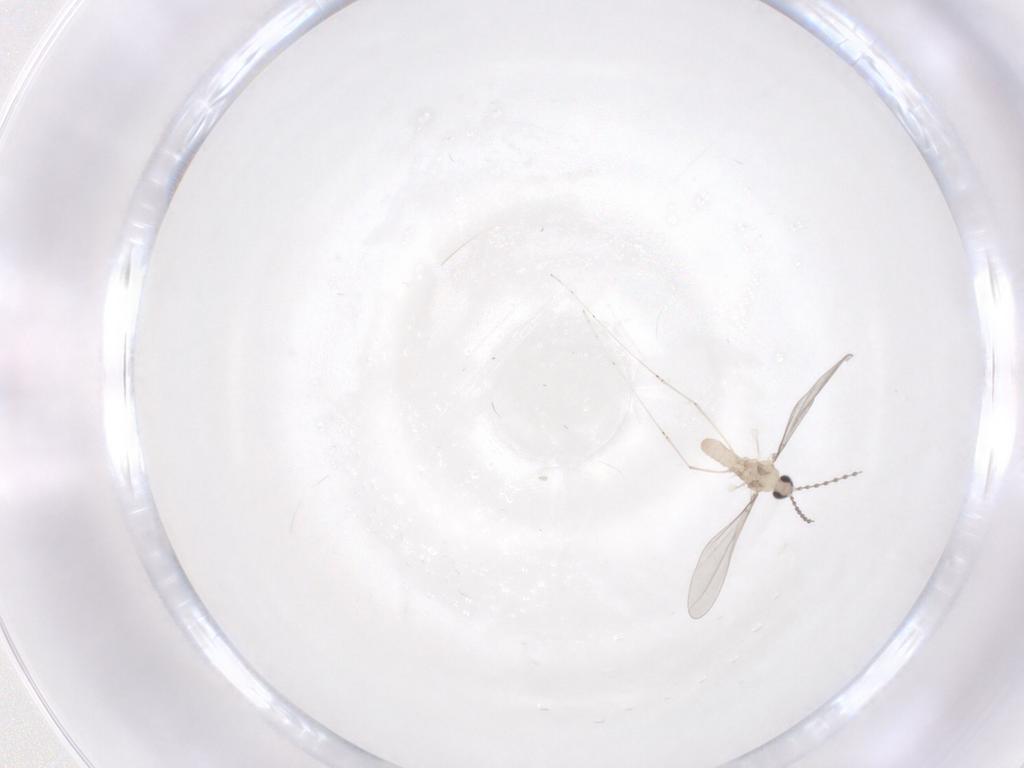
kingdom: Animalia
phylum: Arthropoda
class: Insecta
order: Diptera
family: Cecidomyiidae
